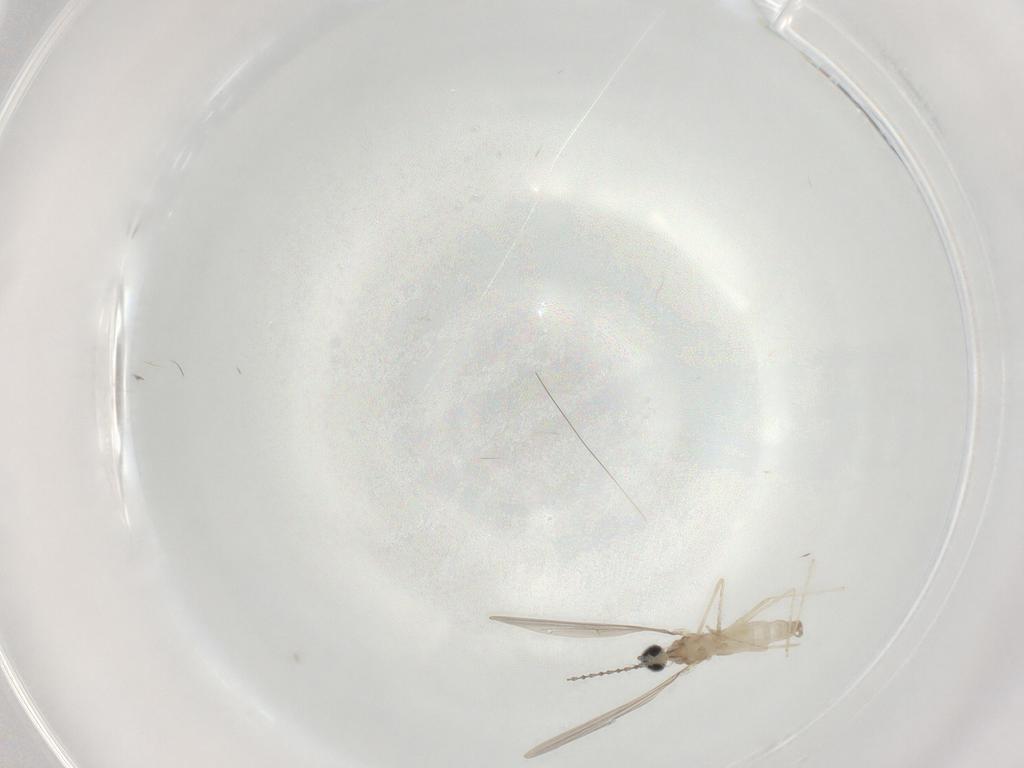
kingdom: Animalia
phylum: Arthropoda
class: Insecta
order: Diptera
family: Cecidomyiidae
